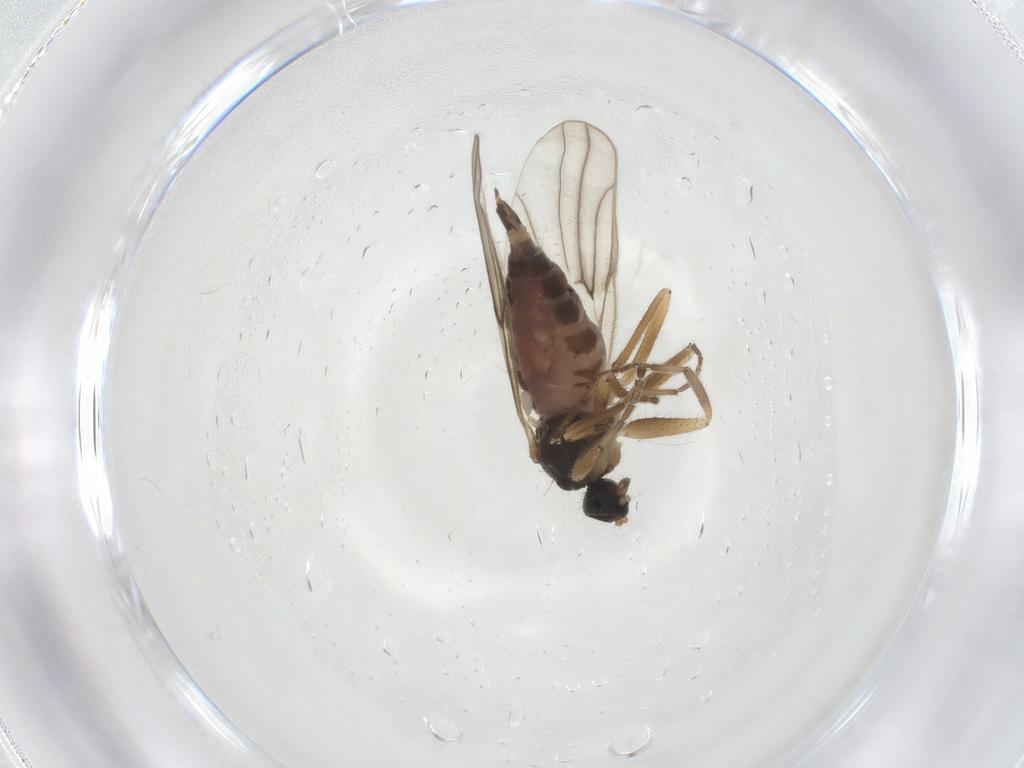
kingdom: Animalia
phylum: Arthropoda
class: Insecta
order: Diptera
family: Hybotidae
